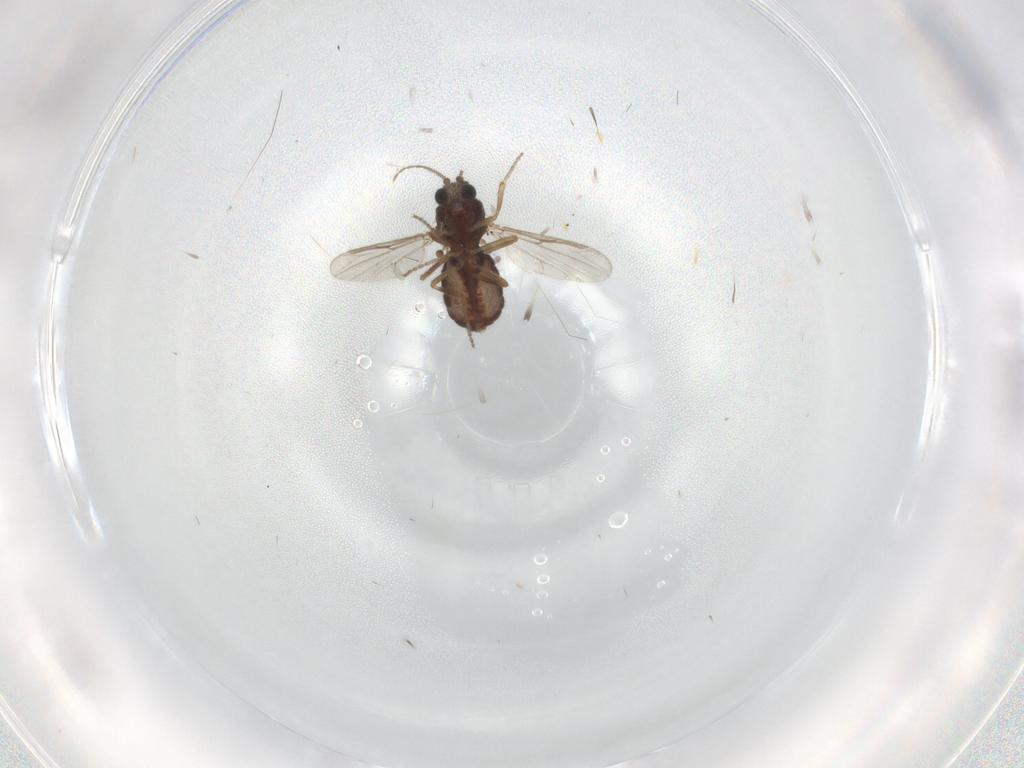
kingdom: Animalia
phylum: Arthropoda
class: Insecta
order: Diptera
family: Ceratopogonidae
